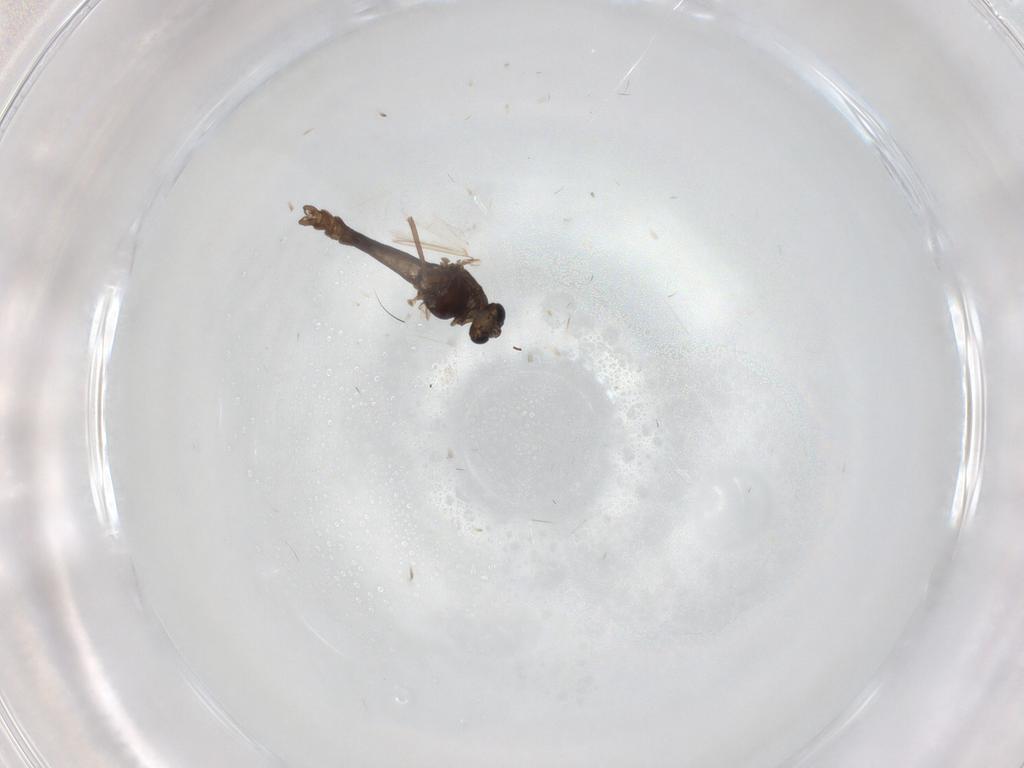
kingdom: Animalia
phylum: Arthropoda
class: Insecta
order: Diptera
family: Chironomidae
